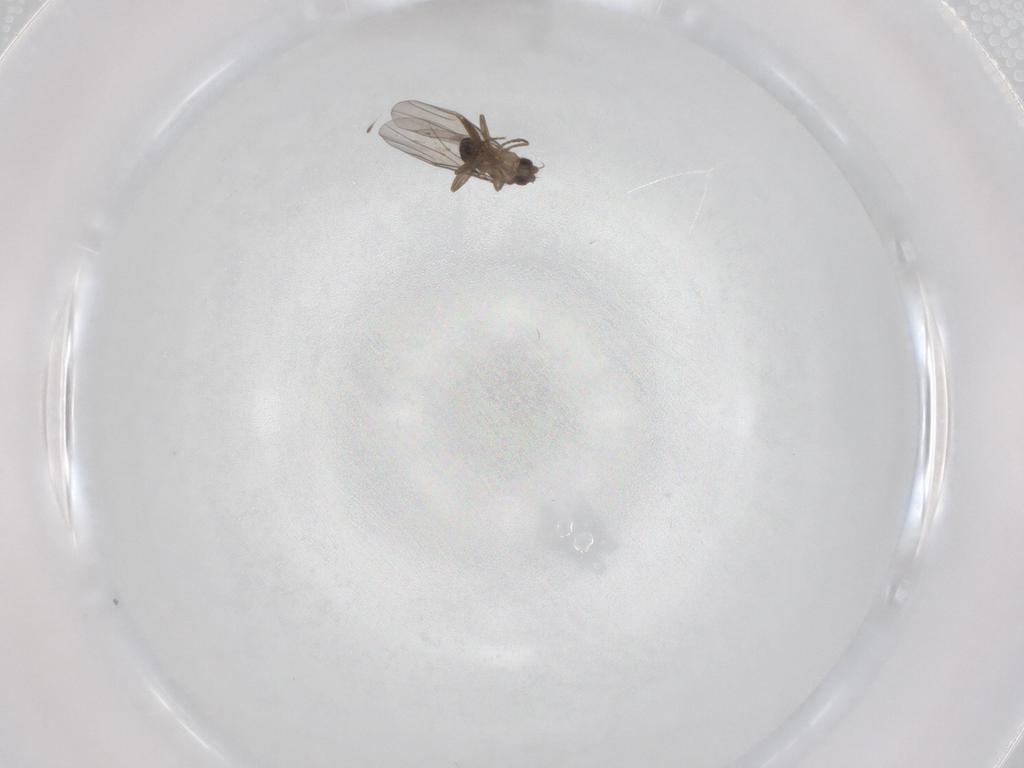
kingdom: Animalia
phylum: Arthropoda
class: Insecta
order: Diptera
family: Phoridae
